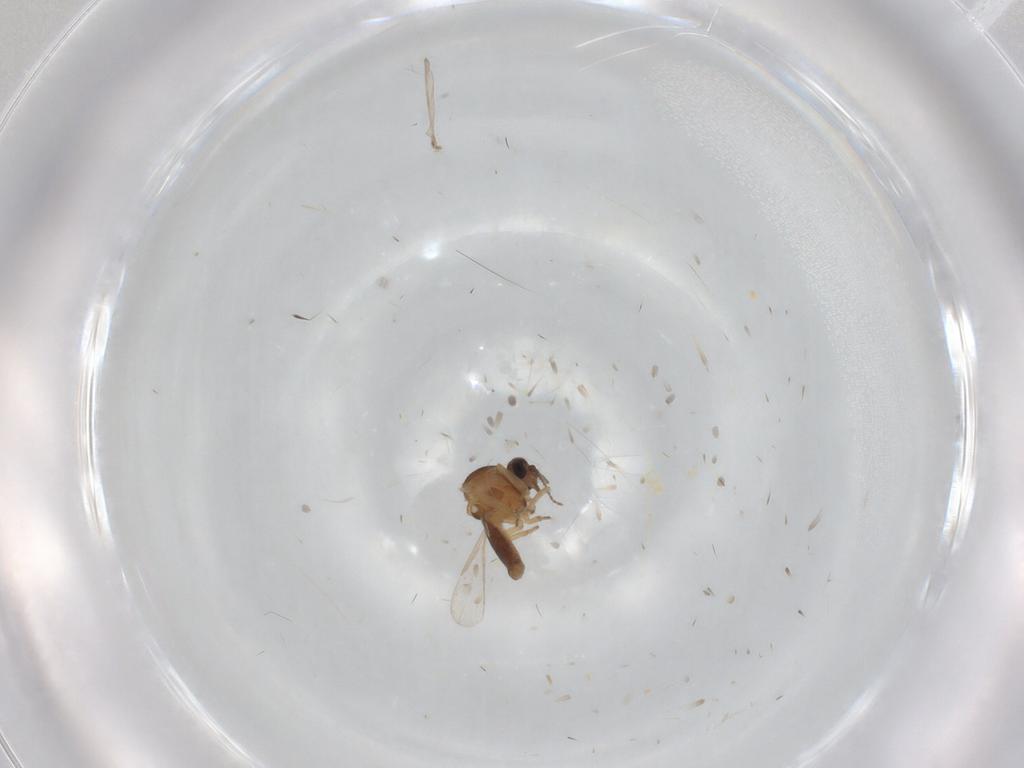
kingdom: Animalia
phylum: Arthropoda
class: Insecta
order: Diptera
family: Ceratopogonidae
